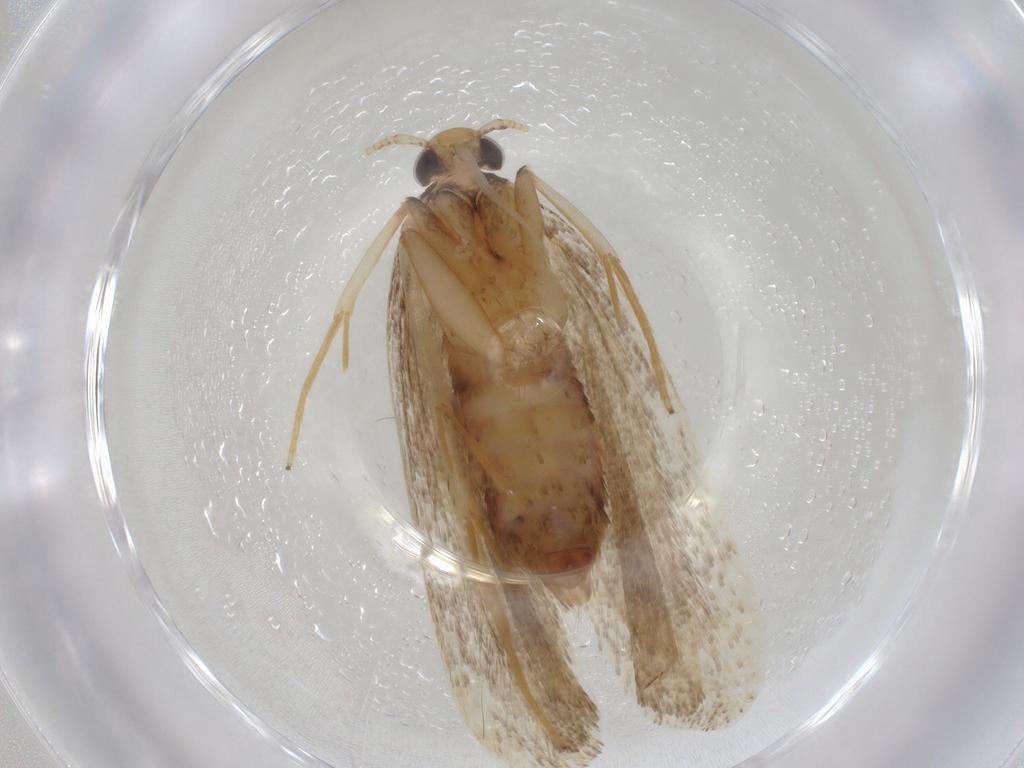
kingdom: Animalia
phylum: Arthropoda
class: Insecta
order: Lepidoptera
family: Lecithoceridae
